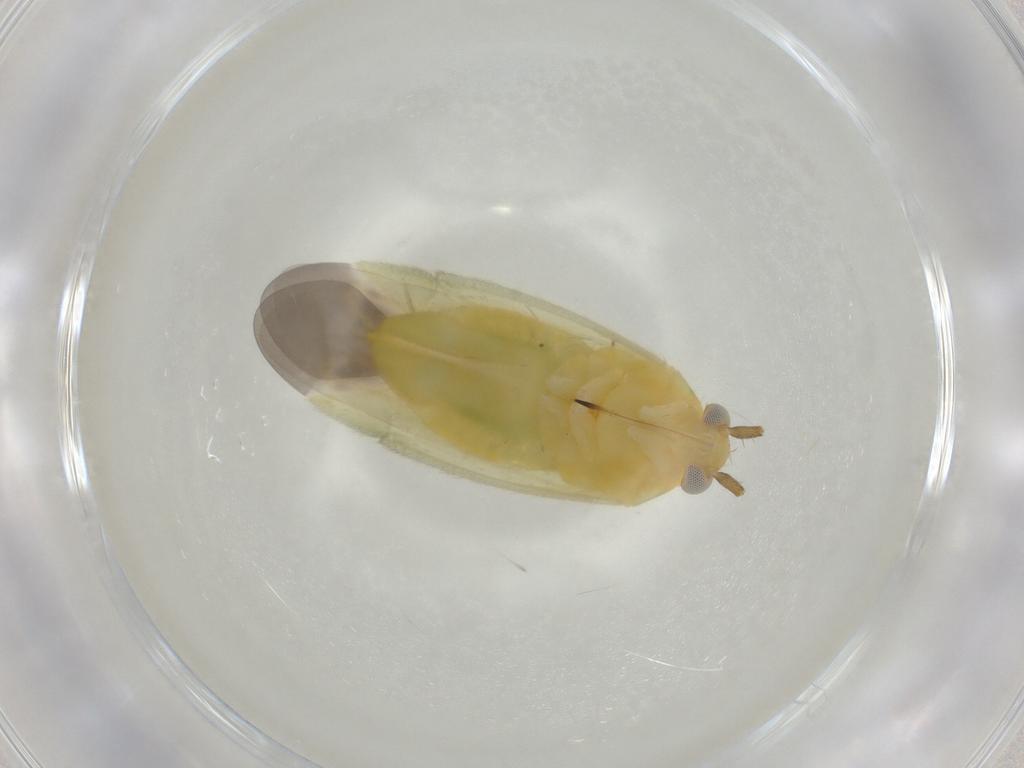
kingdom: Animalia
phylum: Arthropoda
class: Insecta
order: Hemiptera
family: Miridae
